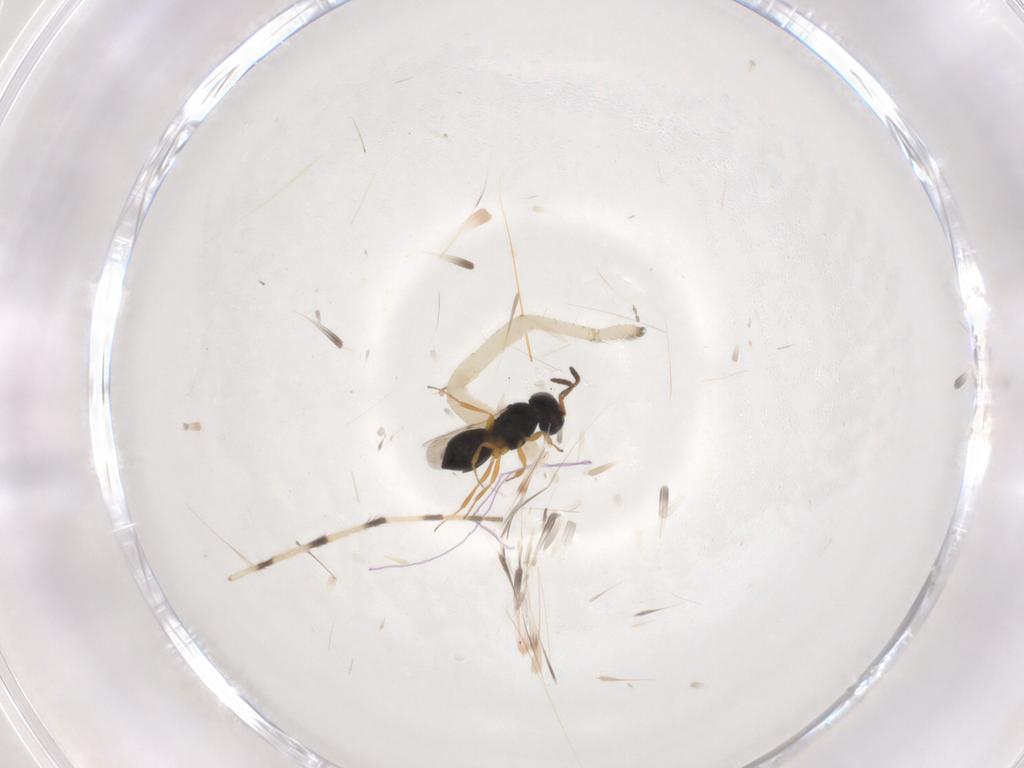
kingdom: Animalia
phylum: Arthropoda
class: Insecta
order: Hymenoptera
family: Scelionidae
